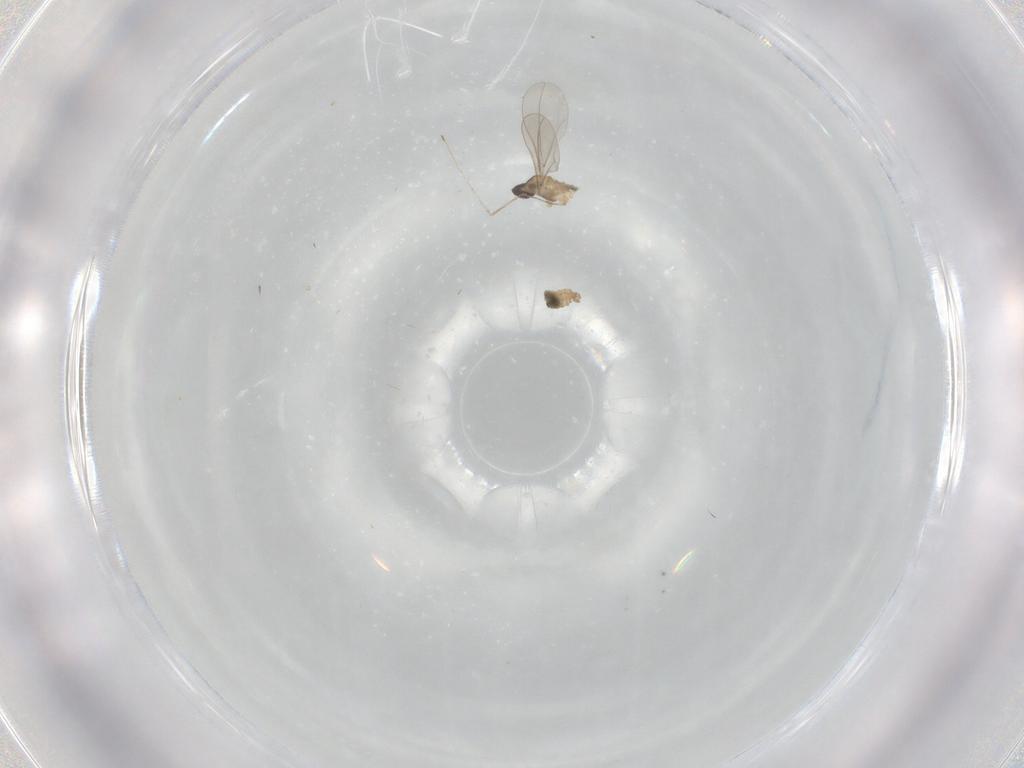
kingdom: Animalia
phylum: Arthropoda
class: Insecta
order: Diptera
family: Cecidomyiidae
